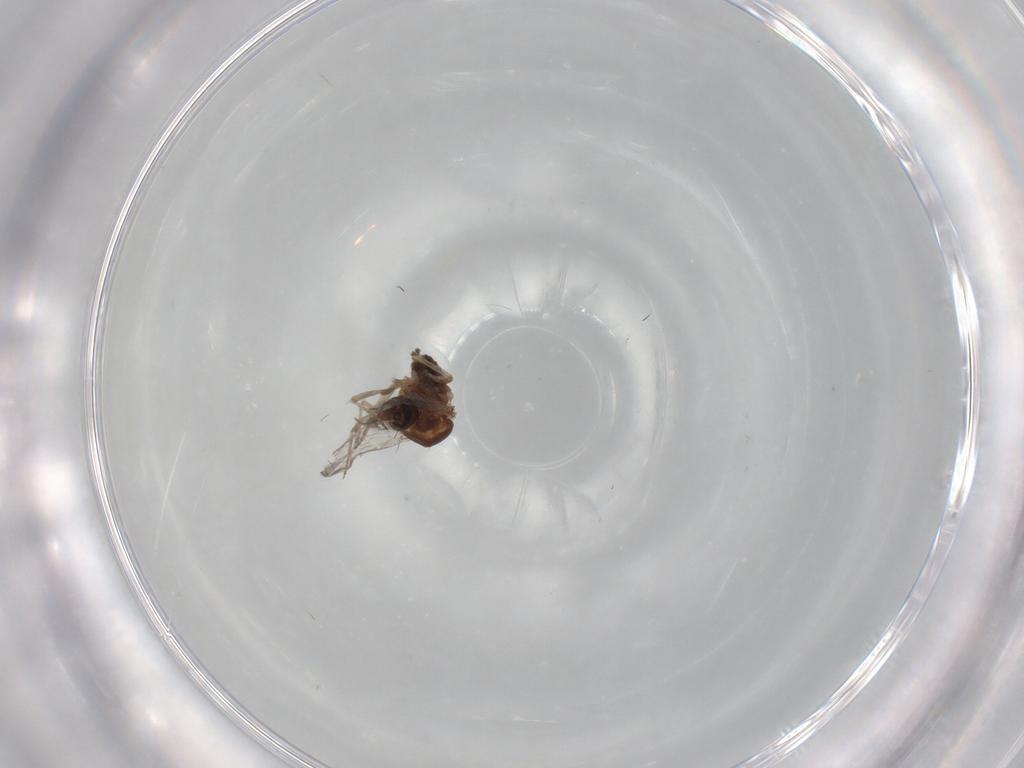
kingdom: Animalia
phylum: Arthropoda
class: Insecta
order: Diptera
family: Ceratopogonidae
